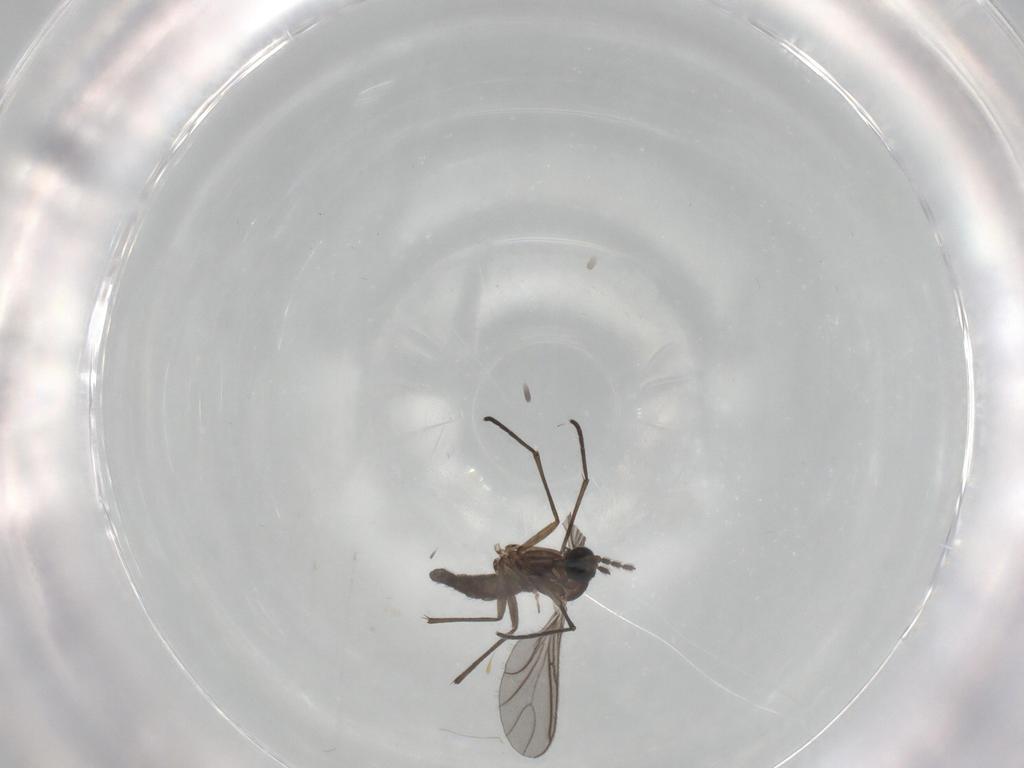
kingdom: Animalia
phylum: Arthropoda
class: Insecta
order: Diptera
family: Sciaridae
